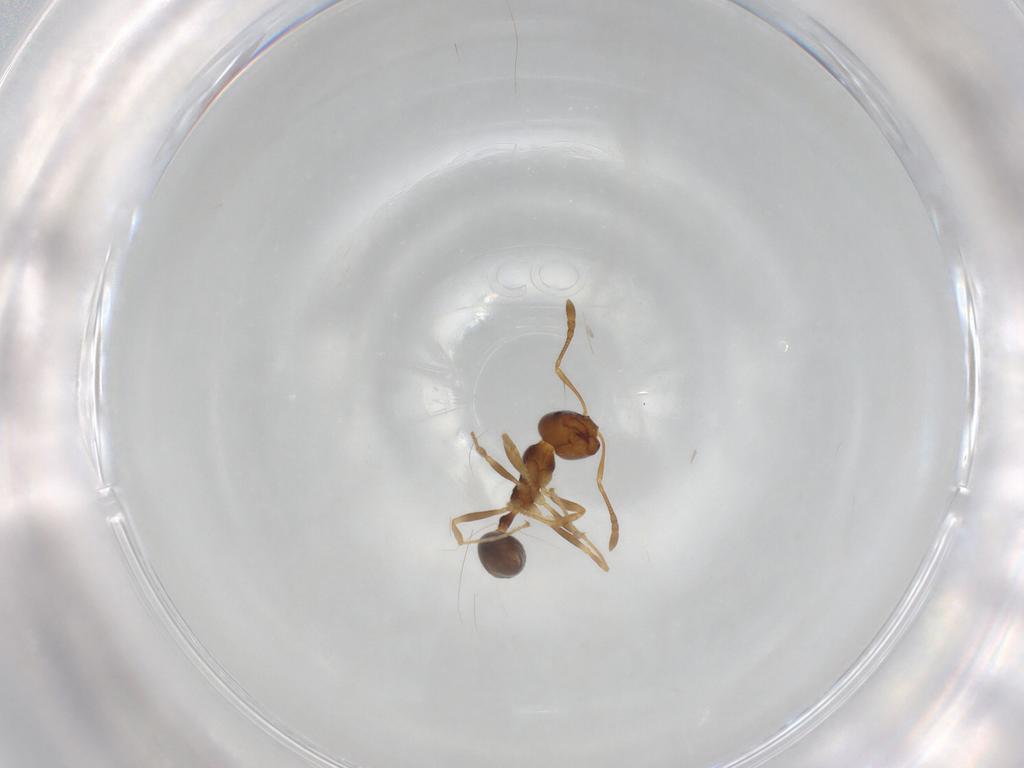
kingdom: Animalia
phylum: Arthropoda
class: Insecta
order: Hymenoptera
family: Formicidae
